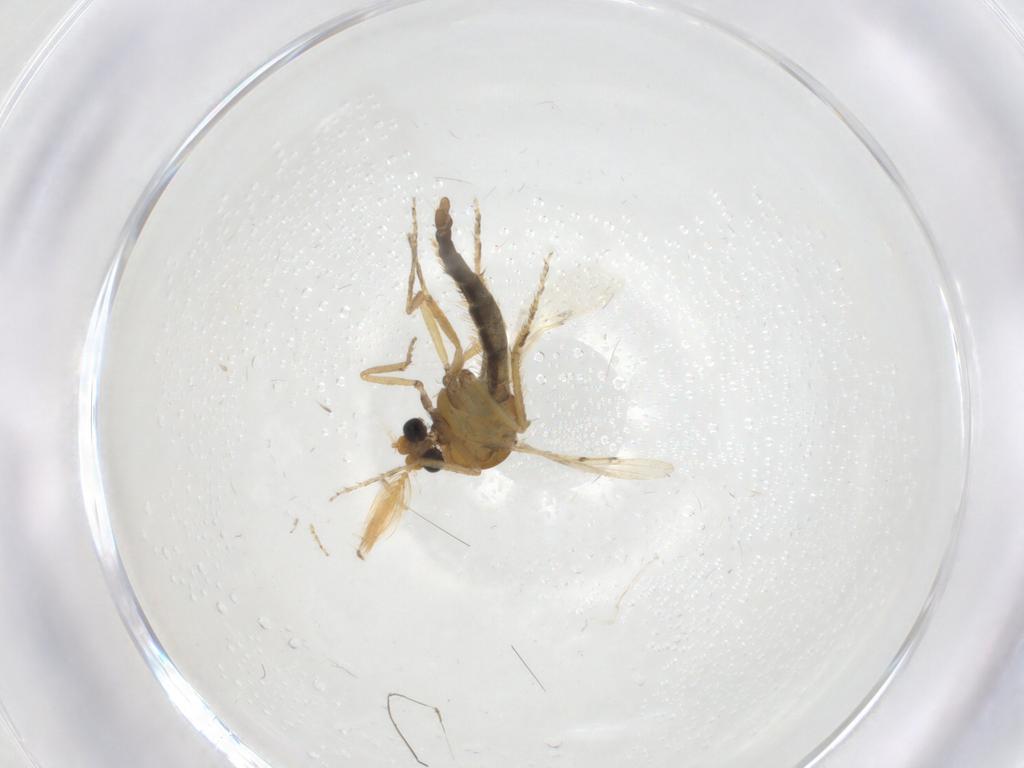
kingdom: Animalia
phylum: Arthropoda
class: Insecta
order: Diptera
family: Ceratopogonidae
